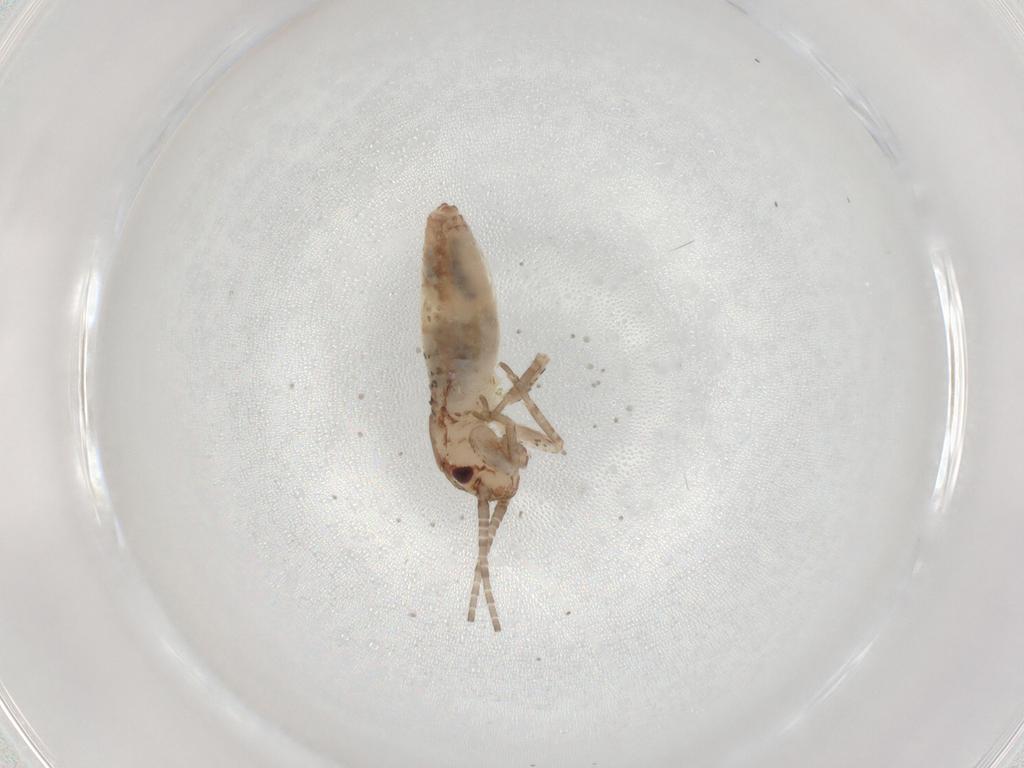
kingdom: Animalia
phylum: Arthropoda
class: Insecta
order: Orthoptera
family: Mogoplistidae
